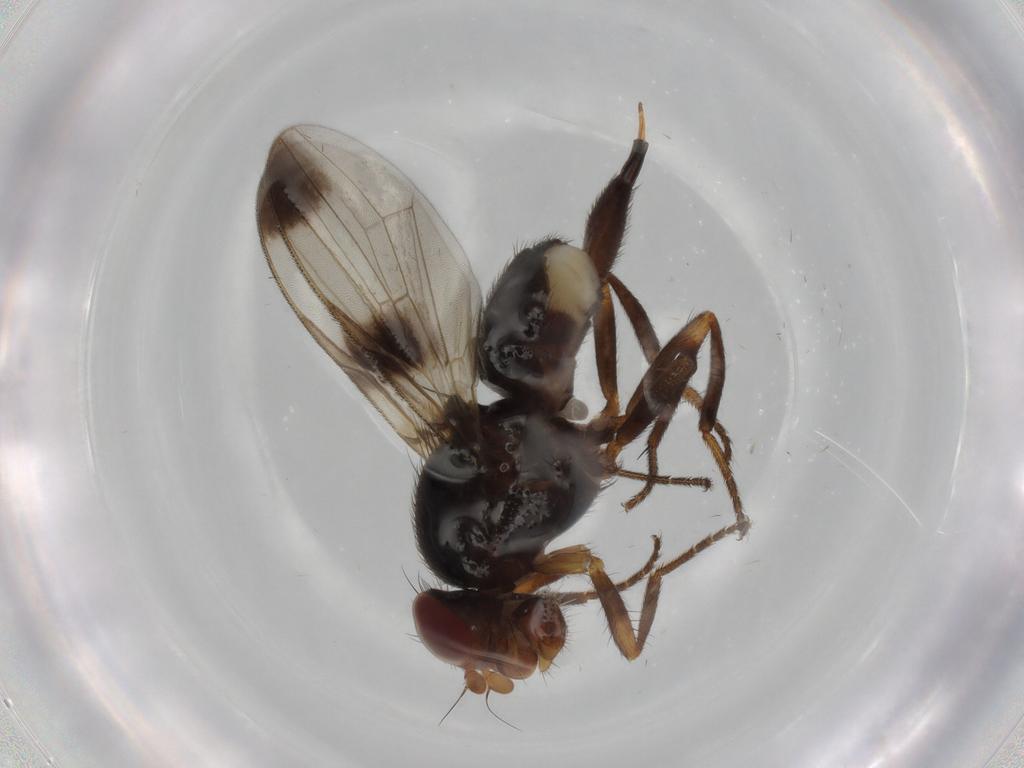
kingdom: Animalia
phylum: Arthropoda
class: Insecta
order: Diptera
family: Ulidiidae
